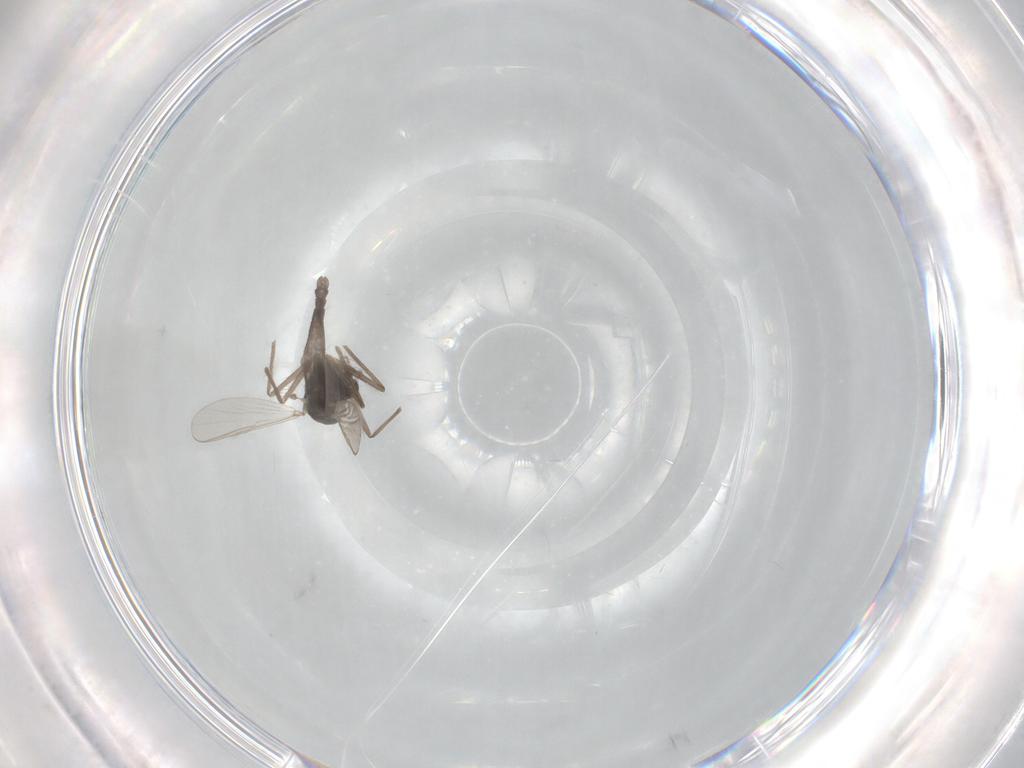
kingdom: Animalia
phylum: Arthropoda
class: Insecta
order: Diptera
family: Chironomidae
